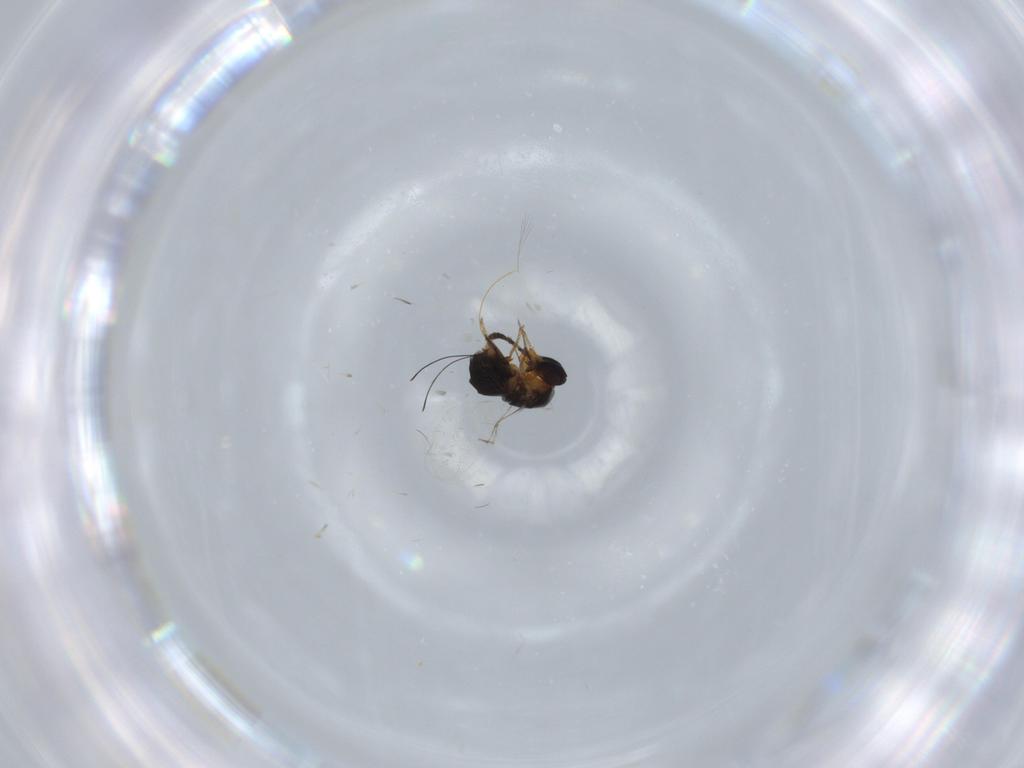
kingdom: Animalia
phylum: Arthropoda
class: Insecta
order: Hymenoptera
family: Agaonidae
